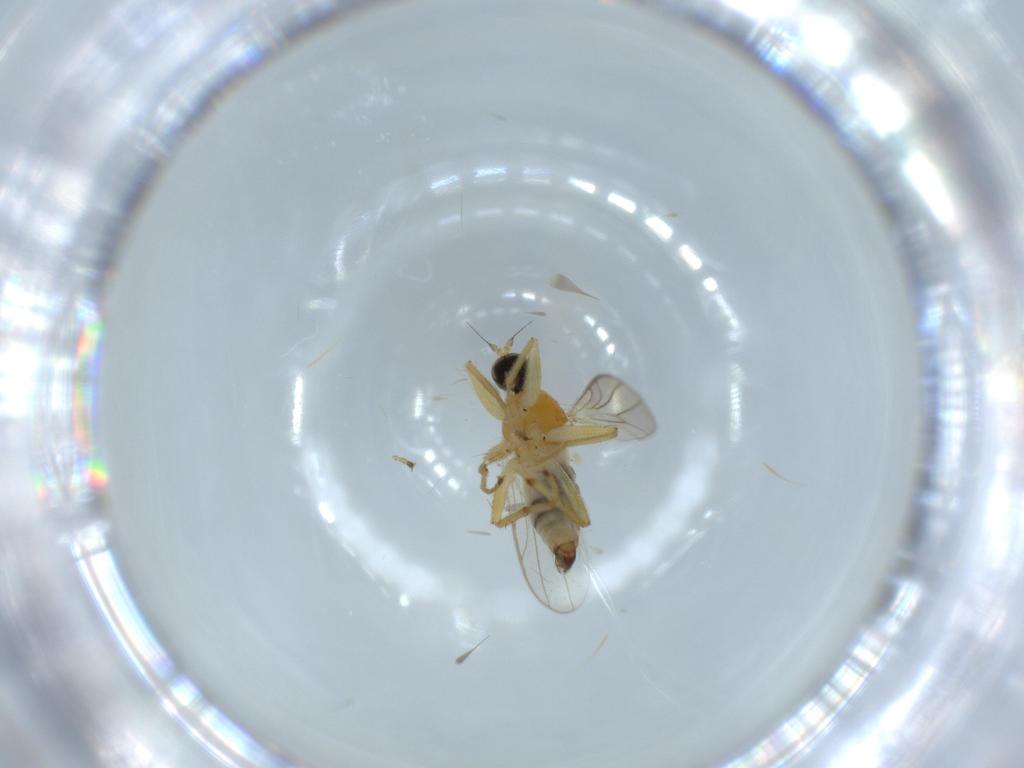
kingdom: Animalia
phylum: Arthropoda
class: Insecta
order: Diptera
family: Hybotidae
